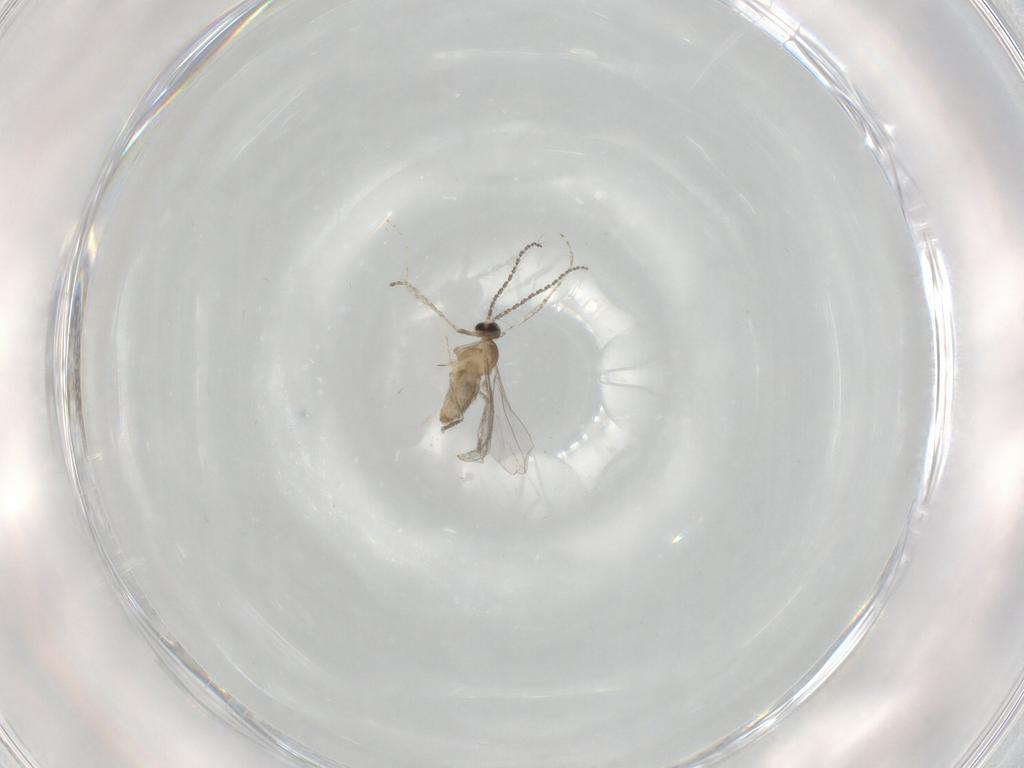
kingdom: Animalia
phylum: Arthropoda
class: Insecta
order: Diptera
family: Cecidomyiidae
